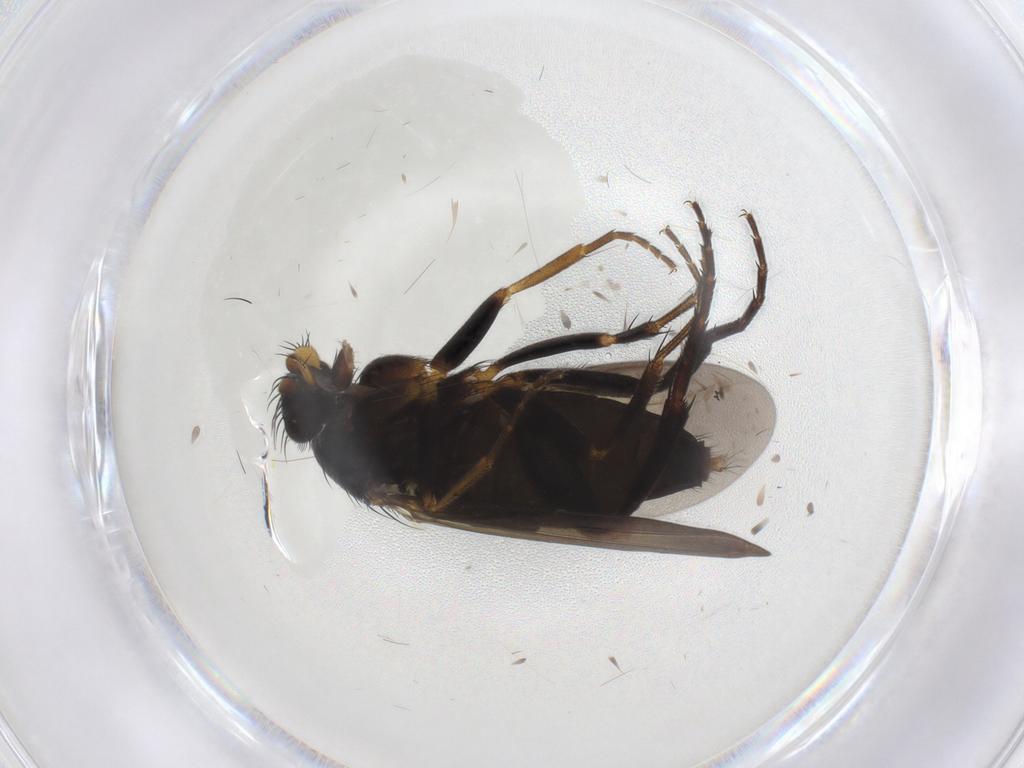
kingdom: Animalia
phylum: Arthropoda
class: Insecta
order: Diptera
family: Phoridae
